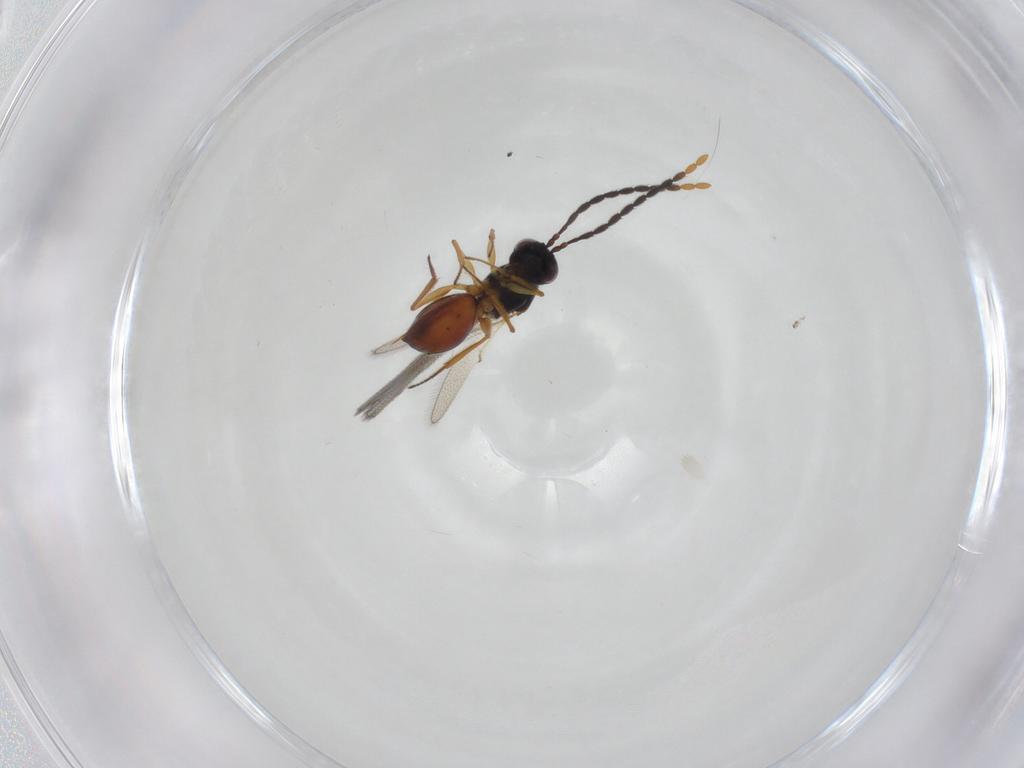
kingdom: Animalia
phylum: Arthropoda
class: Insecta
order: Hymenoptera
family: Figitidae
